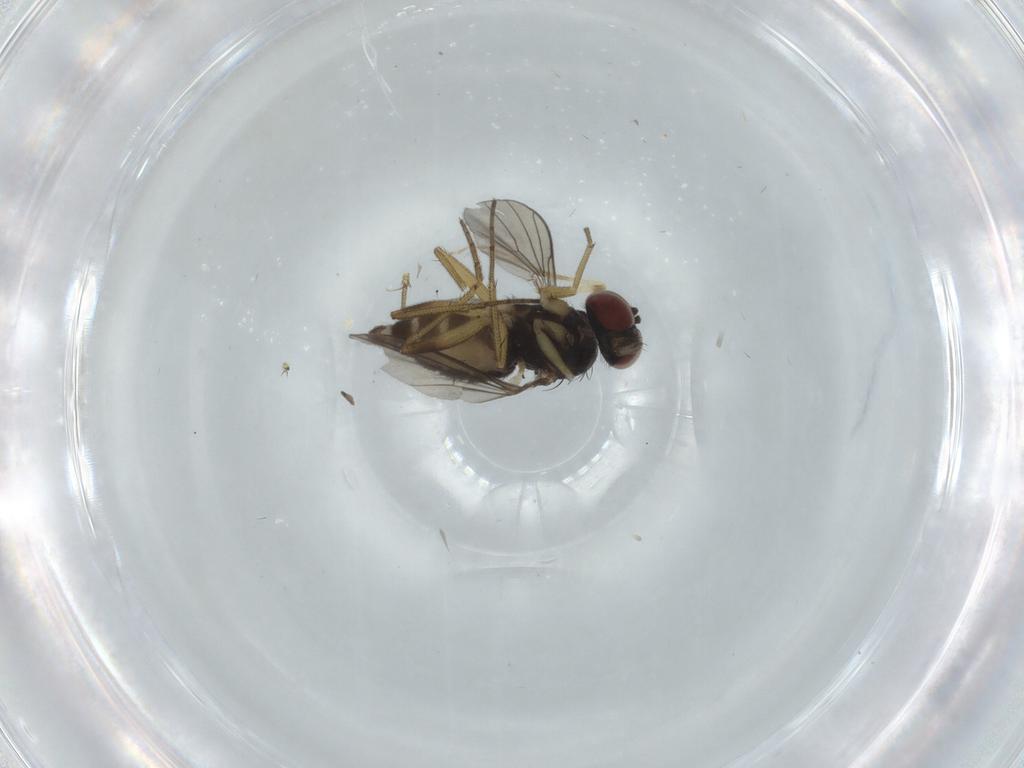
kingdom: Animalia
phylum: Arthropoda
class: Insecta
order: Diptera
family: Dolichopodidae
